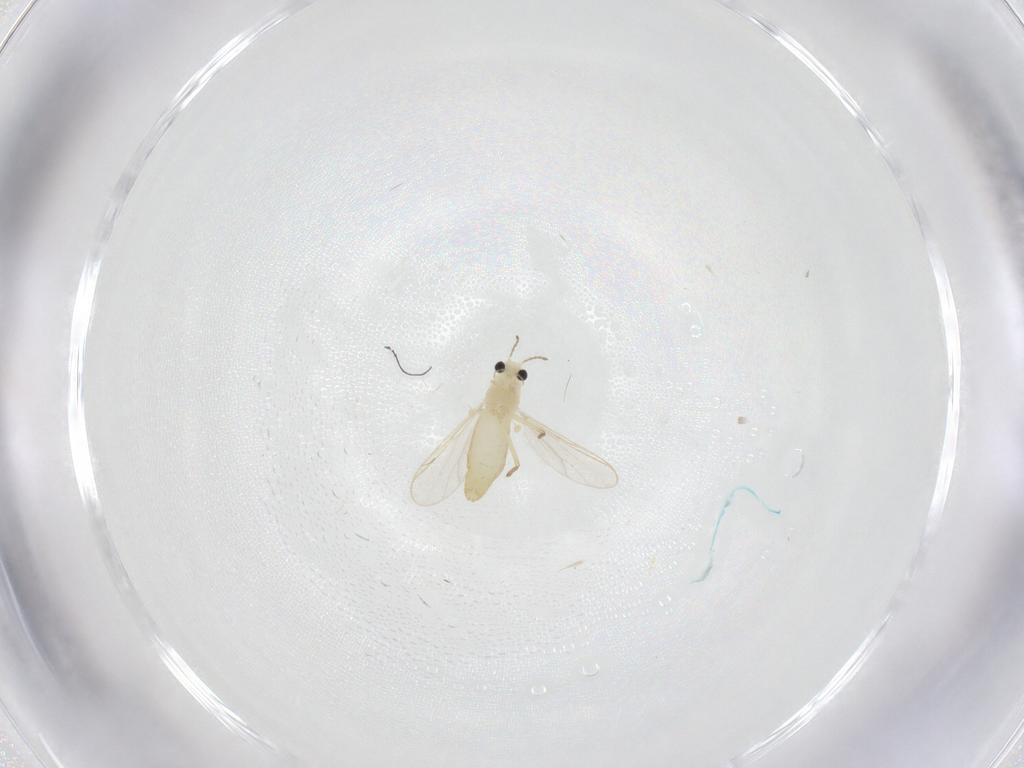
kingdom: Animalia
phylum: Arthropoda
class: Insecta
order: Diptera
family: Chironomidae
